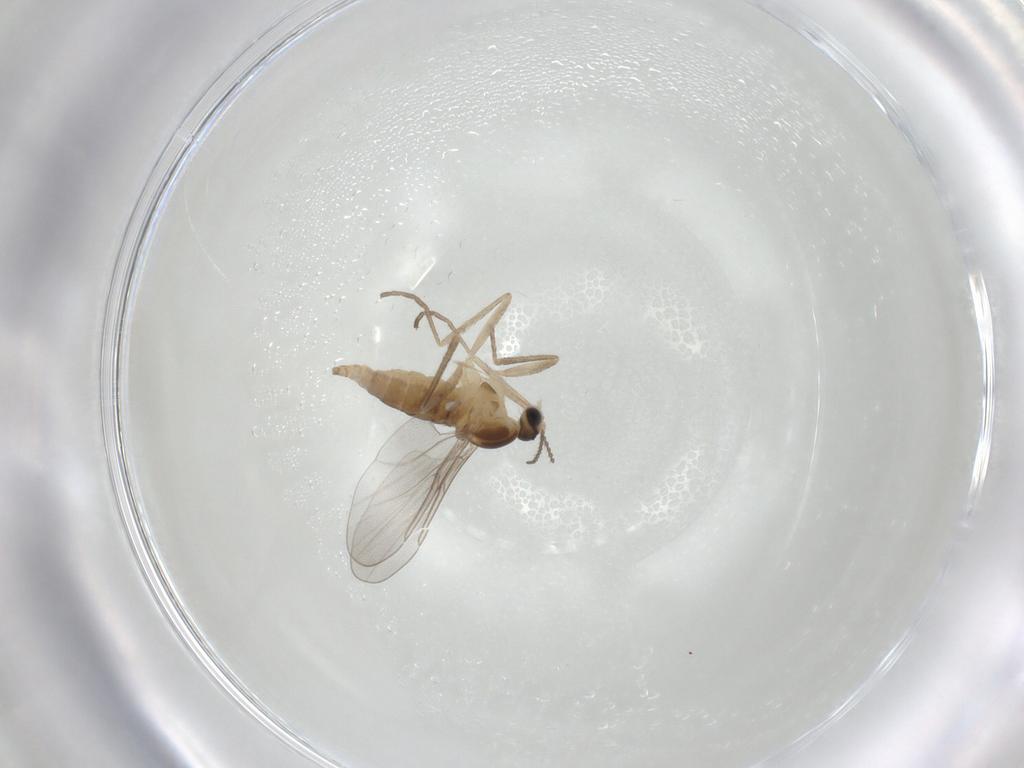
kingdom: Animalia
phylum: Arthropoda
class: Insecta
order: Diptera
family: Cecidomyiidae
